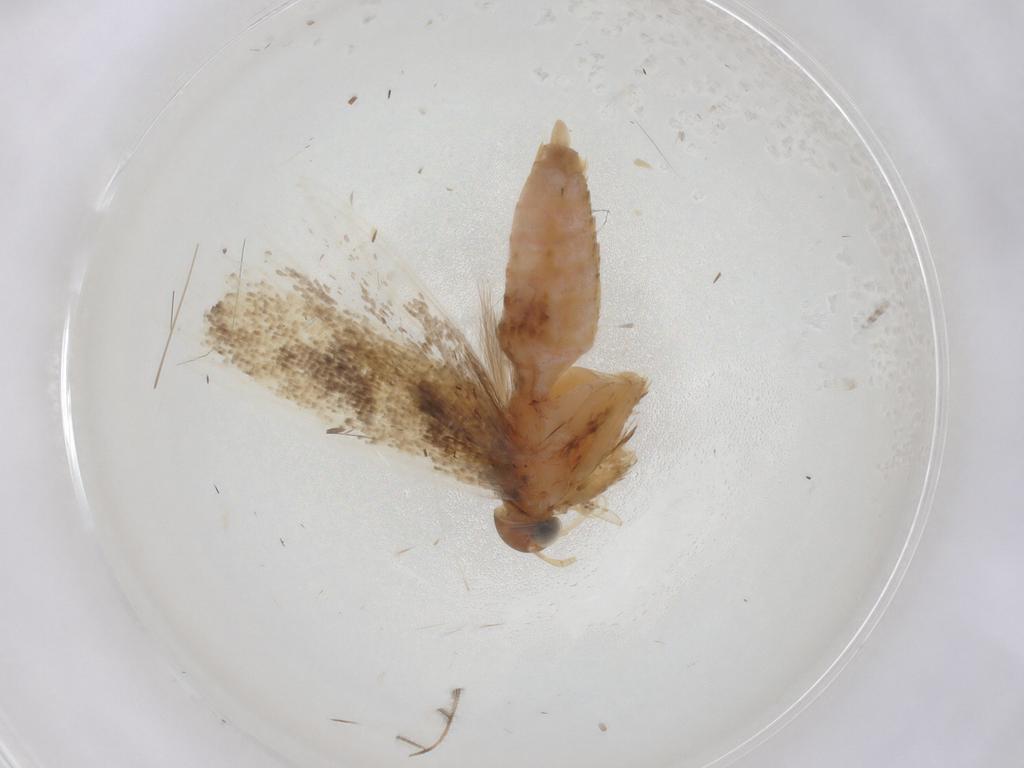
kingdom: Animalia
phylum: Arthropoda
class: Insecta
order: Lepidoptera
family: Gelechiidae
